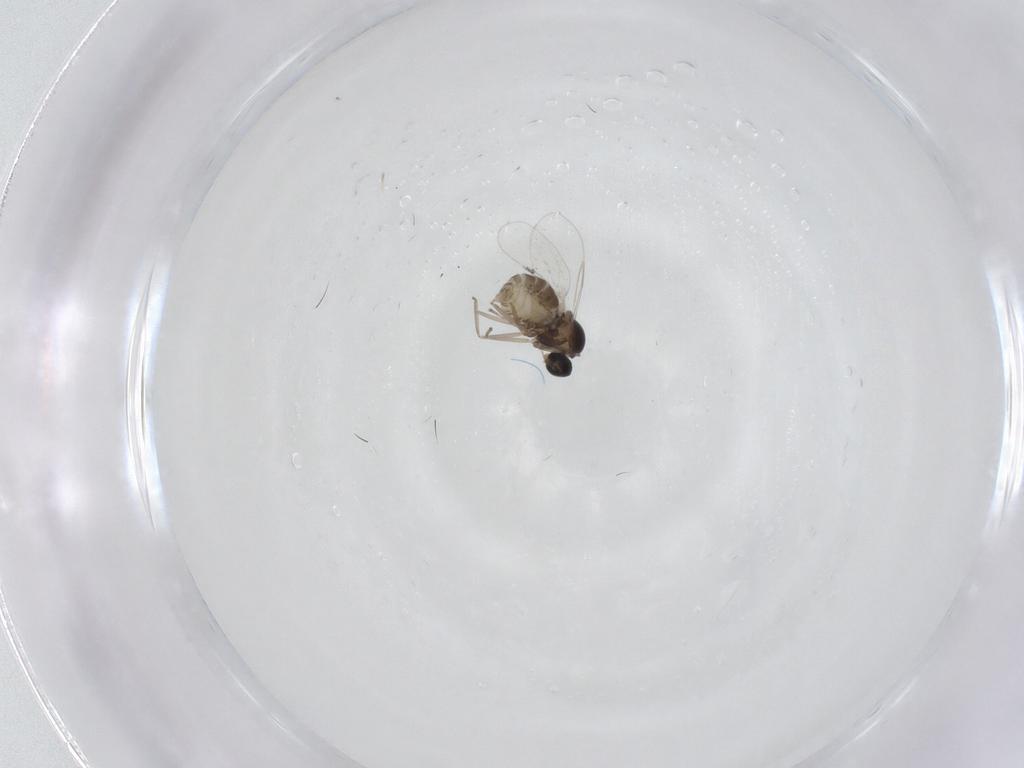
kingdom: Animalia
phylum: Arthropoda
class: Insecta
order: Diptera
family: Cecidomyiidae
